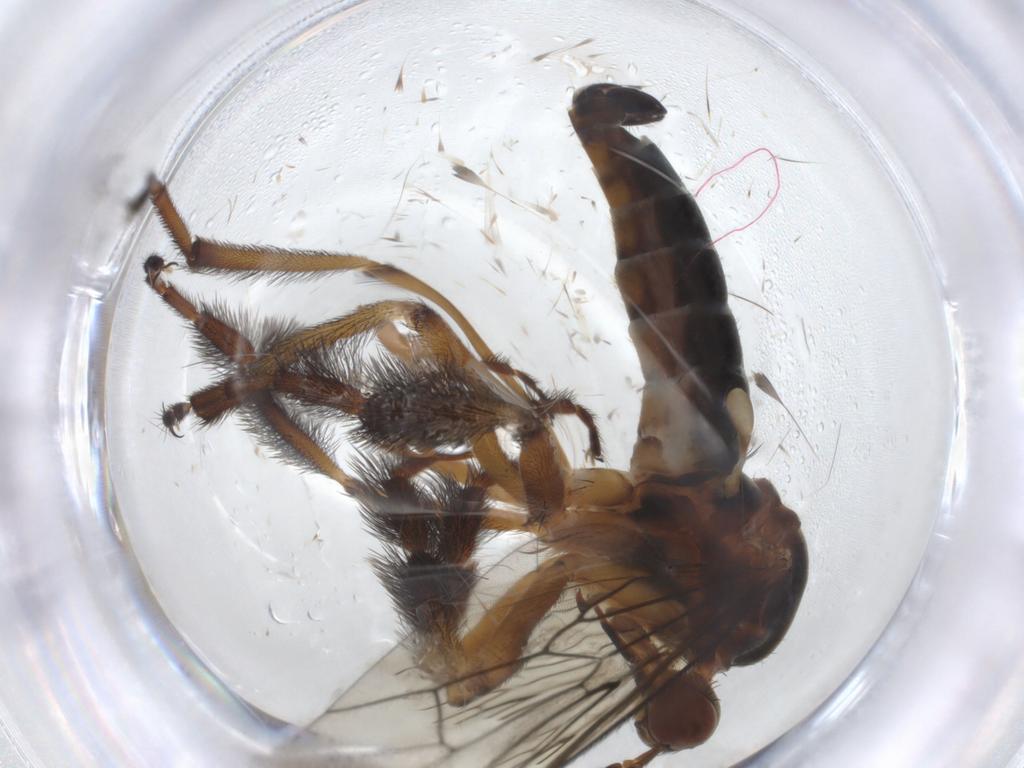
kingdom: Animalia
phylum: Arthropoda
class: Insecta
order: Diptera
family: Empididae
